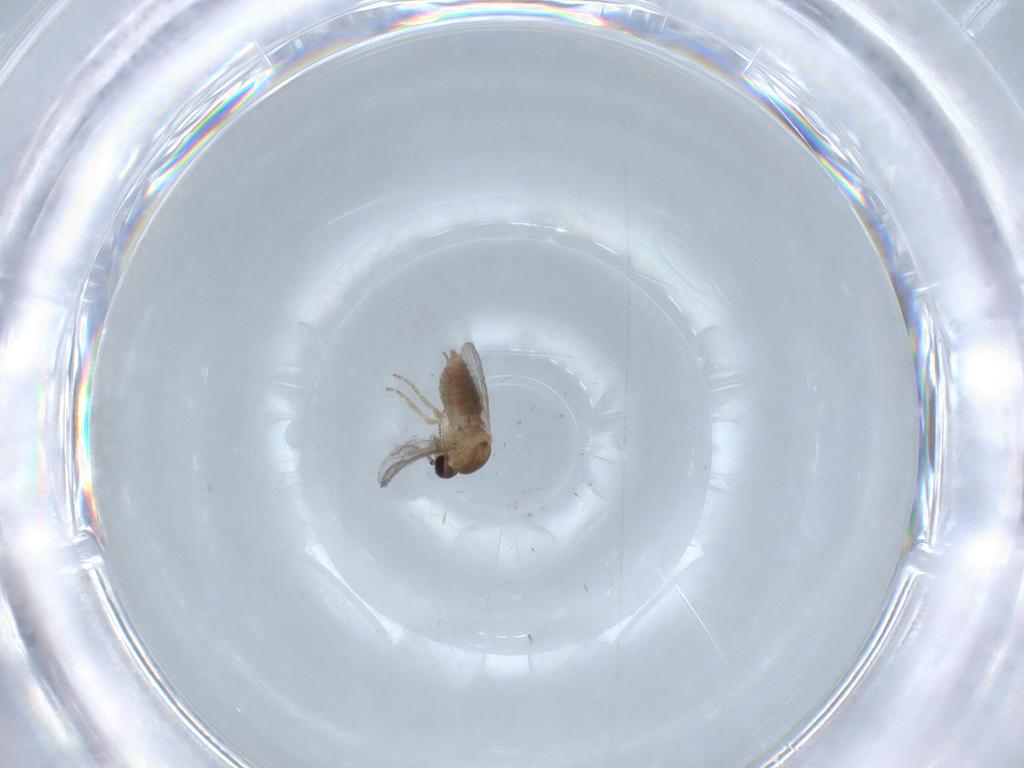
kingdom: Animalia
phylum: Arthropoda
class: Insecta
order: Diptera
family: Ceratopogonidae
